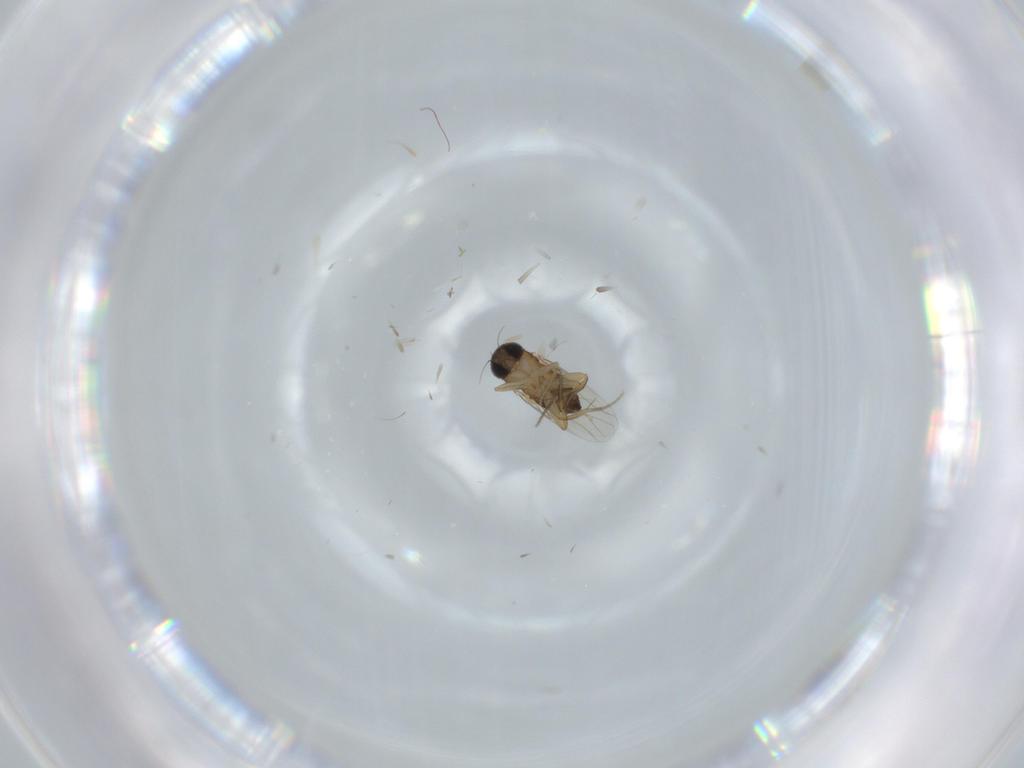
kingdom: Animalia
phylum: Arthropoda
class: Insecta
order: Diptera
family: Phoridae
